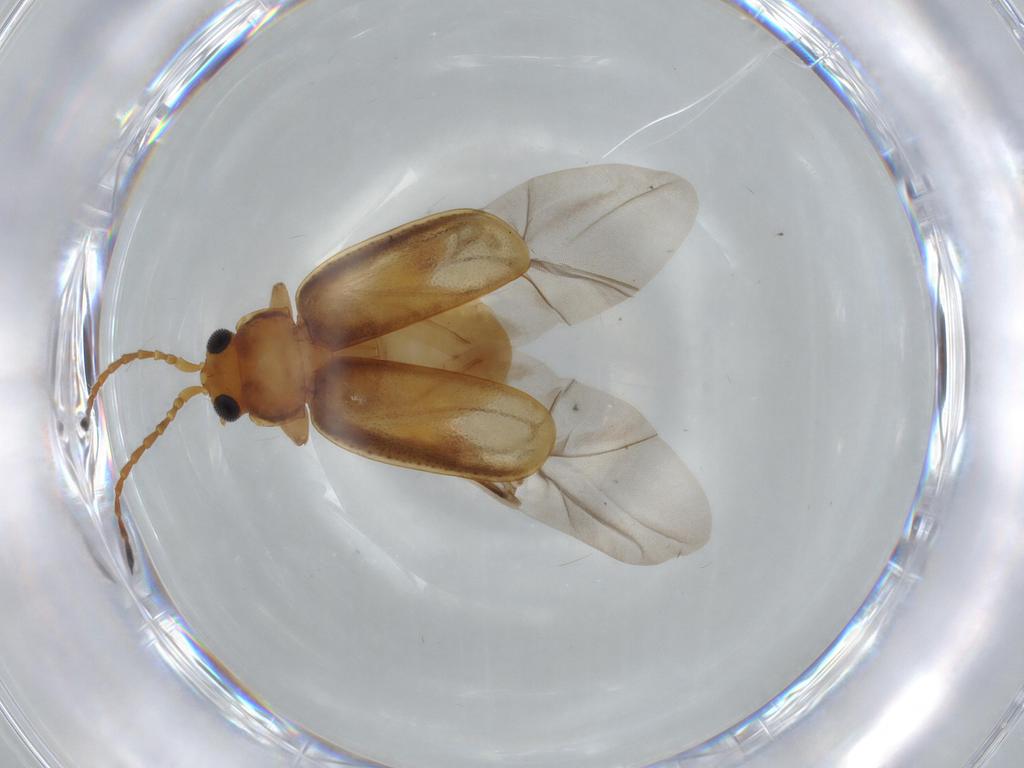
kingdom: Animalia
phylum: Arthropoda
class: Insecta
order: Coleoptera
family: Chrysomelidae
